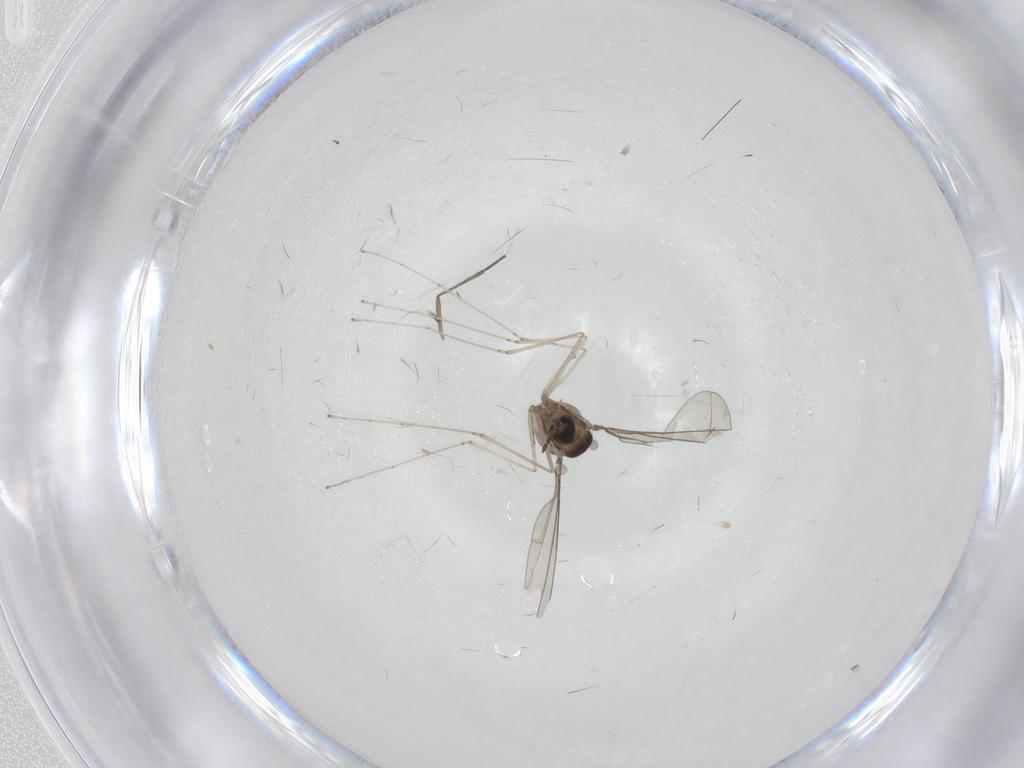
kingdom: Animalia
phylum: Arthropoda
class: Insecta
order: Diptera
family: Cecidomyiidae
